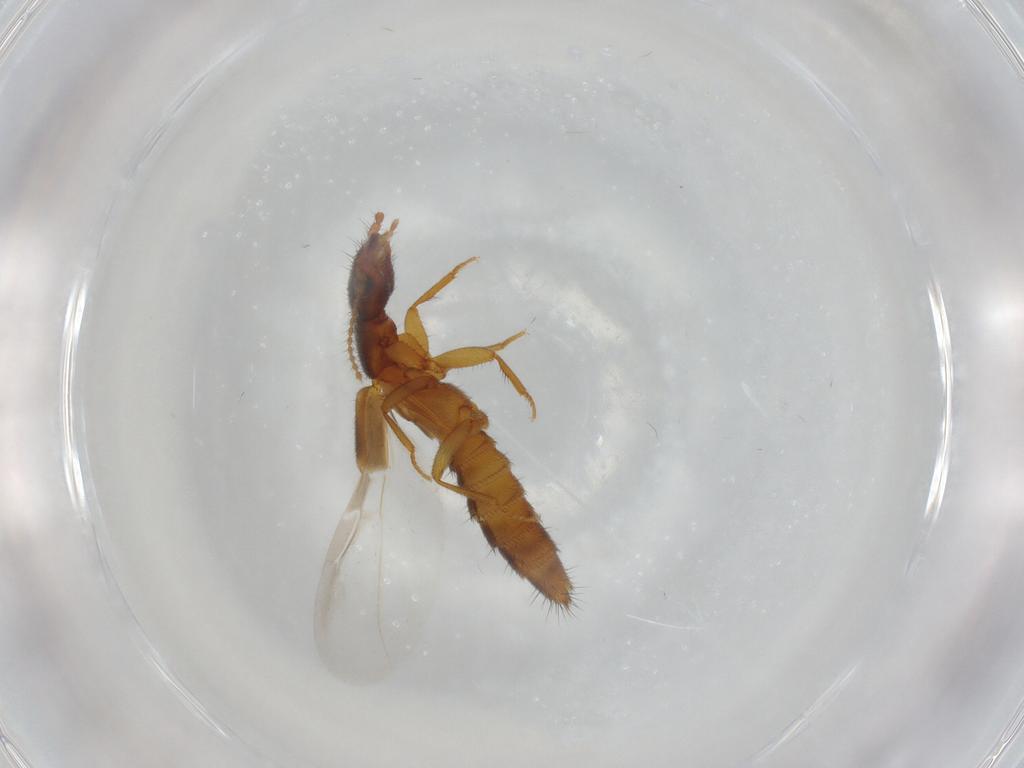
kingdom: Animalia
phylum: Arthropoda
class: Insecta
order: Coleoptera
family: Staphylinidae
